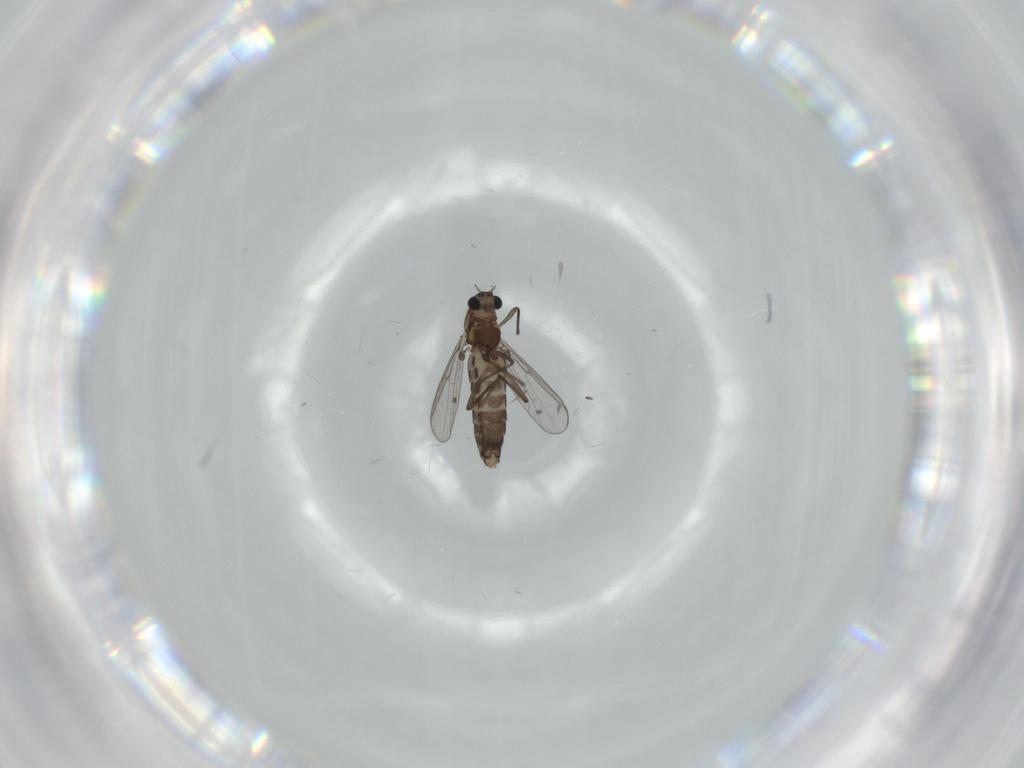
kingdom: Animalia
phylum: Arthropoda
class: Insecta
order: Diptera
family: Chironomidae
